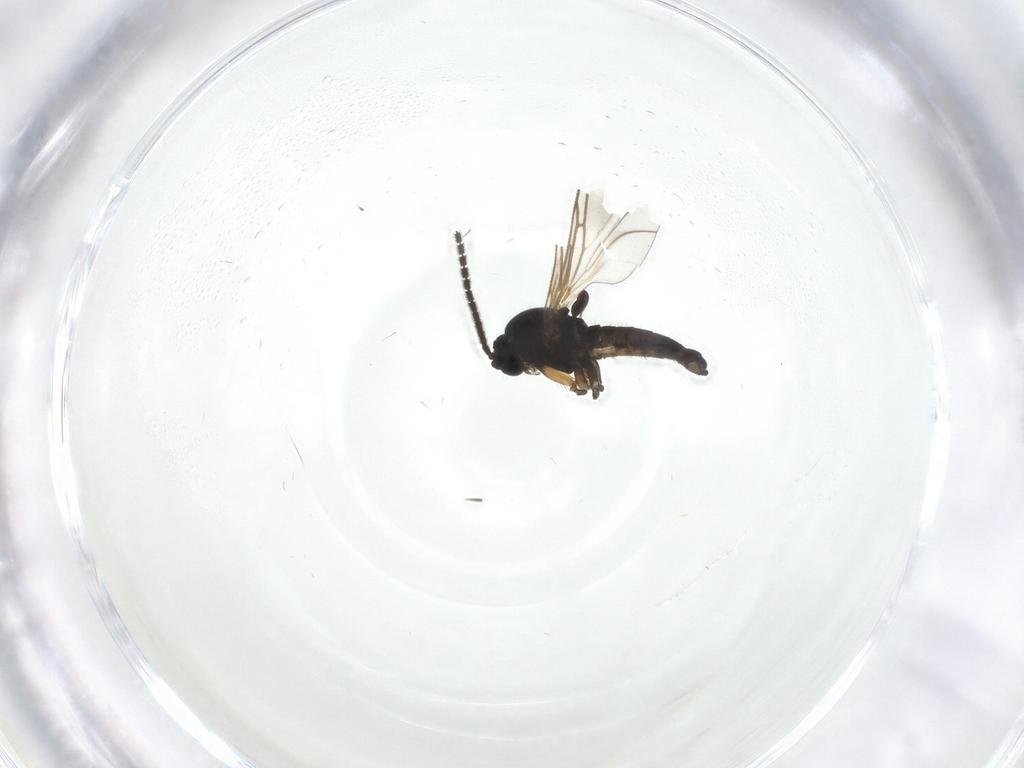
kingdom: Animalia
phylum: Arthropoda
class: Insecta
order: Diptera
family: Sciaridae
